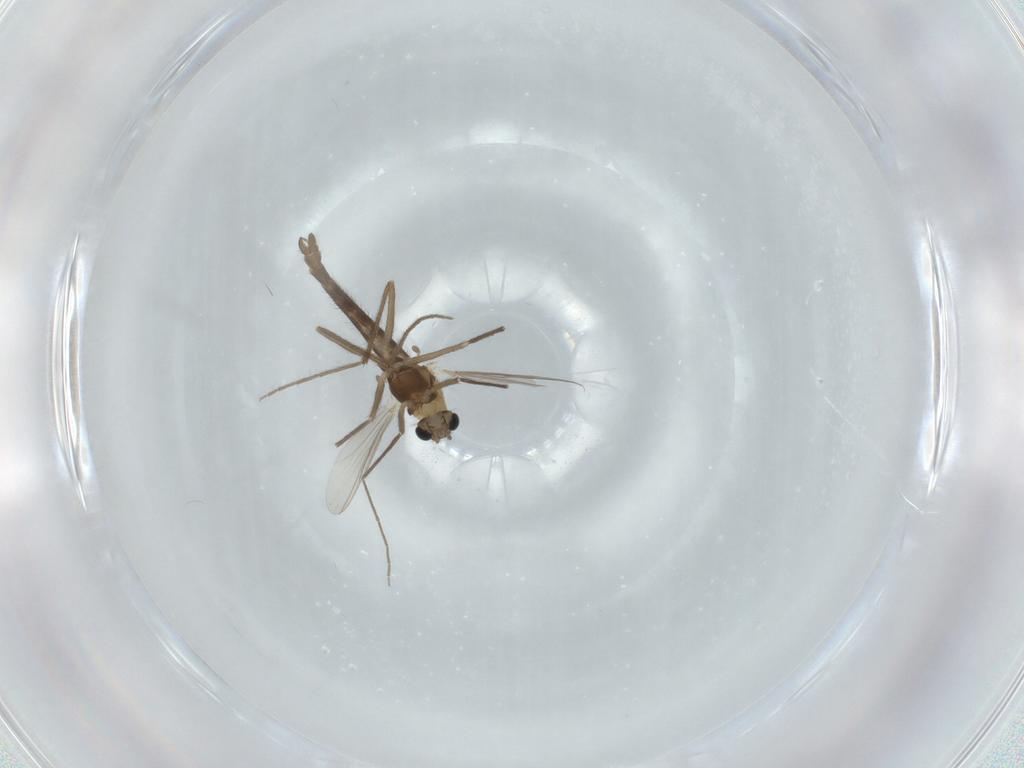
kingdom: Animalia
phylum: Arthropoda
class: Insecta
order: Diptera
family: Chironomidae
